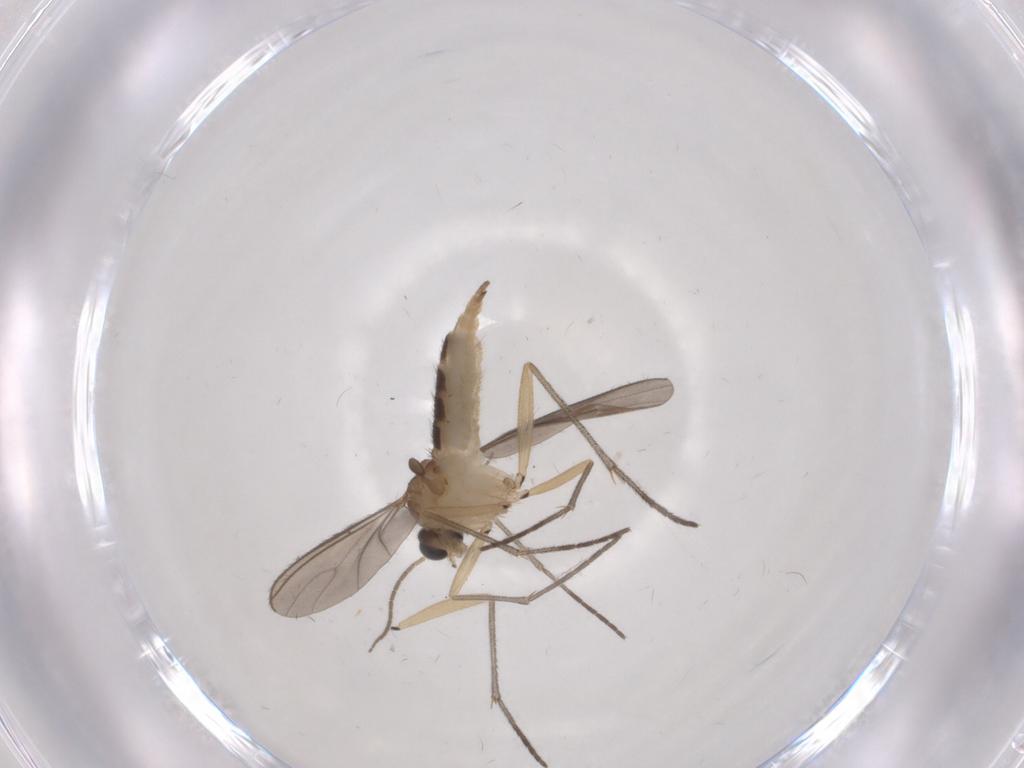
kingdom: Animalia
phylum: Arthropoda
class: Insecta
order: Diptera
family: Sciaridae
